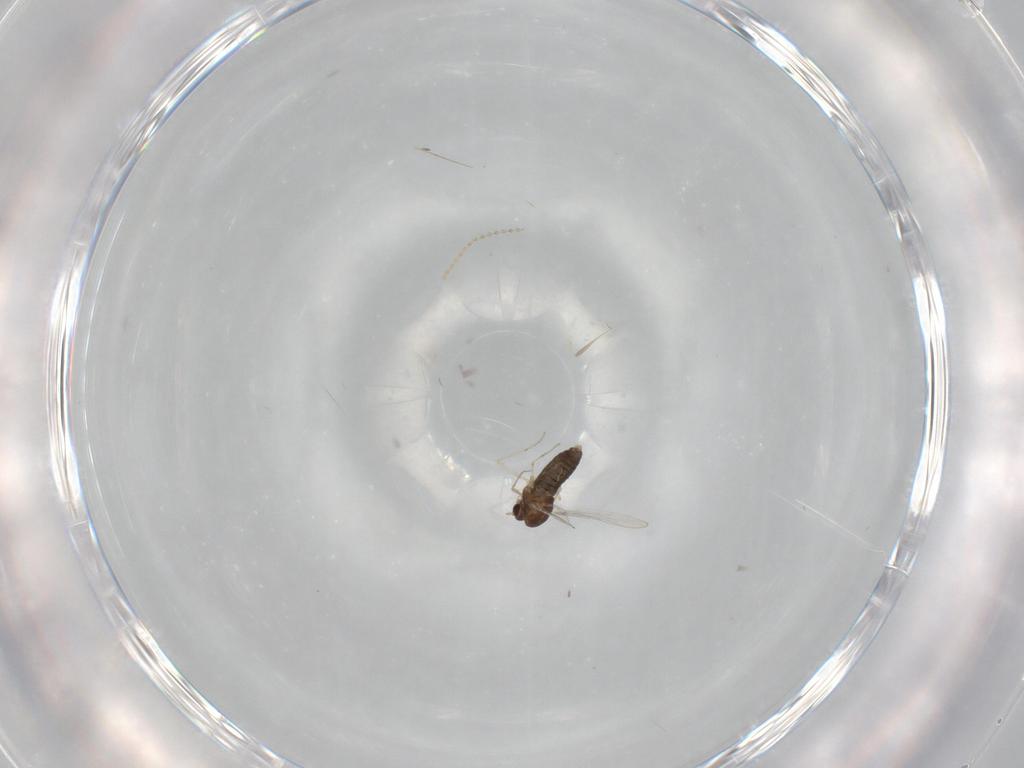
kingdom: Animalia
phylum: Arthropoda
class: Insecta
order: Diptera
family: Chironomidae
